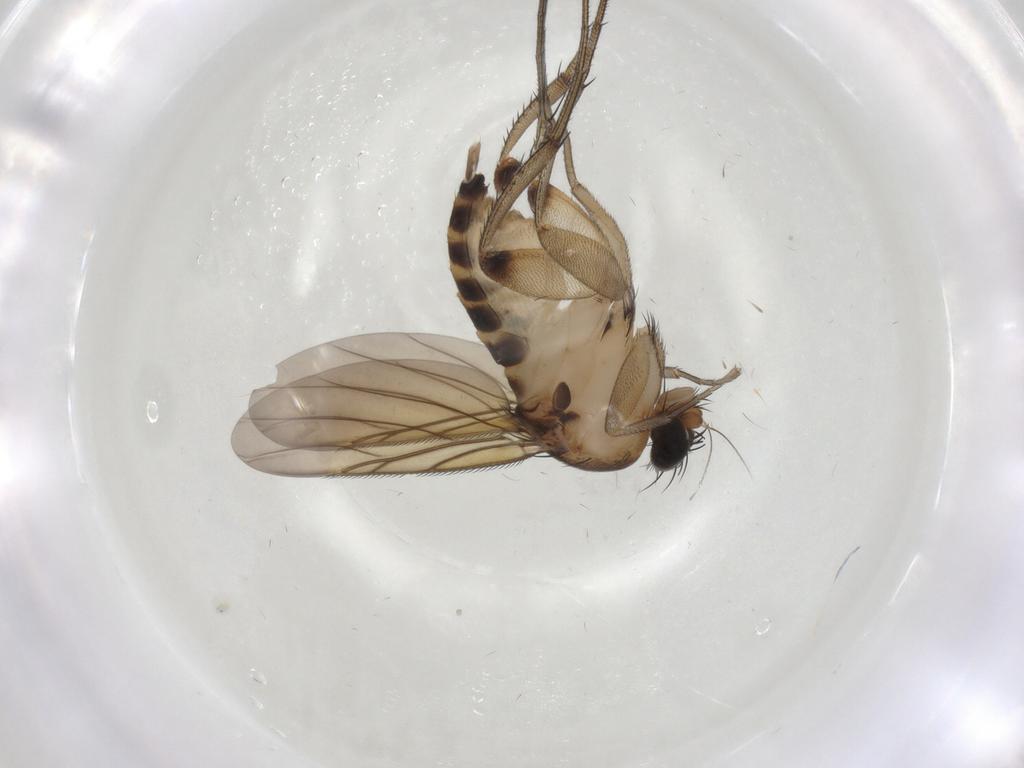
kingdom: Animalia
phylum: Arthropoda
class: Insecta
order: Diptera
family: Phoridae
